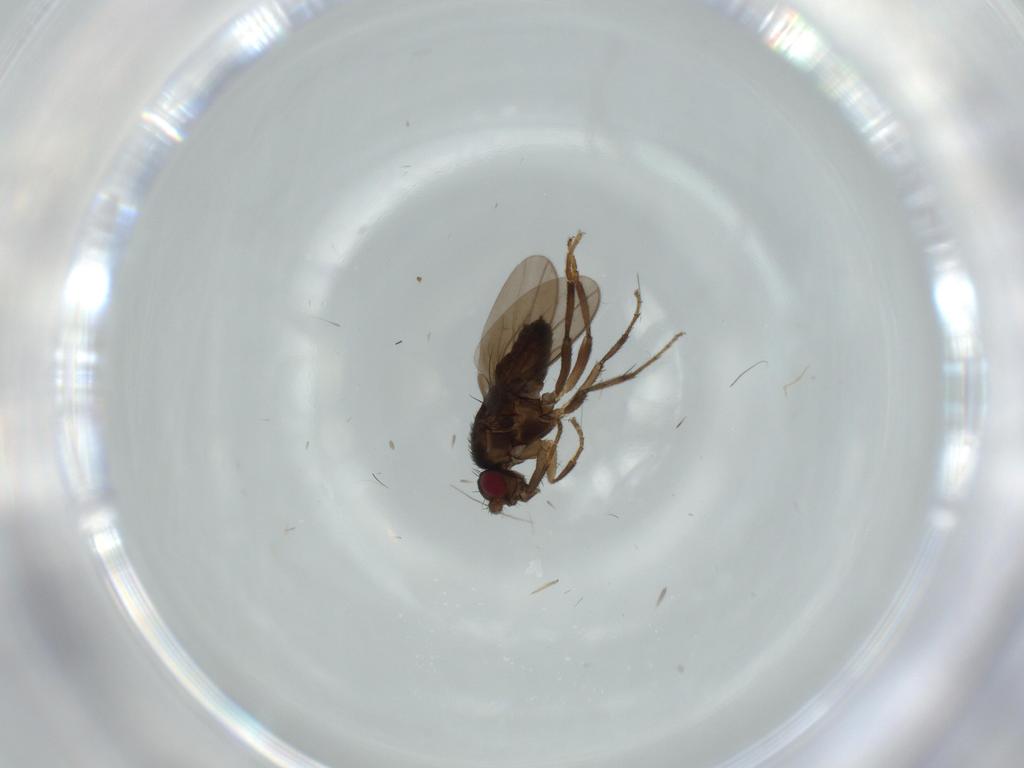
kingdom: Animalia
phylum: Arthropoda
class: Insecta
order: Diptera
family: Sphaeroceridae
